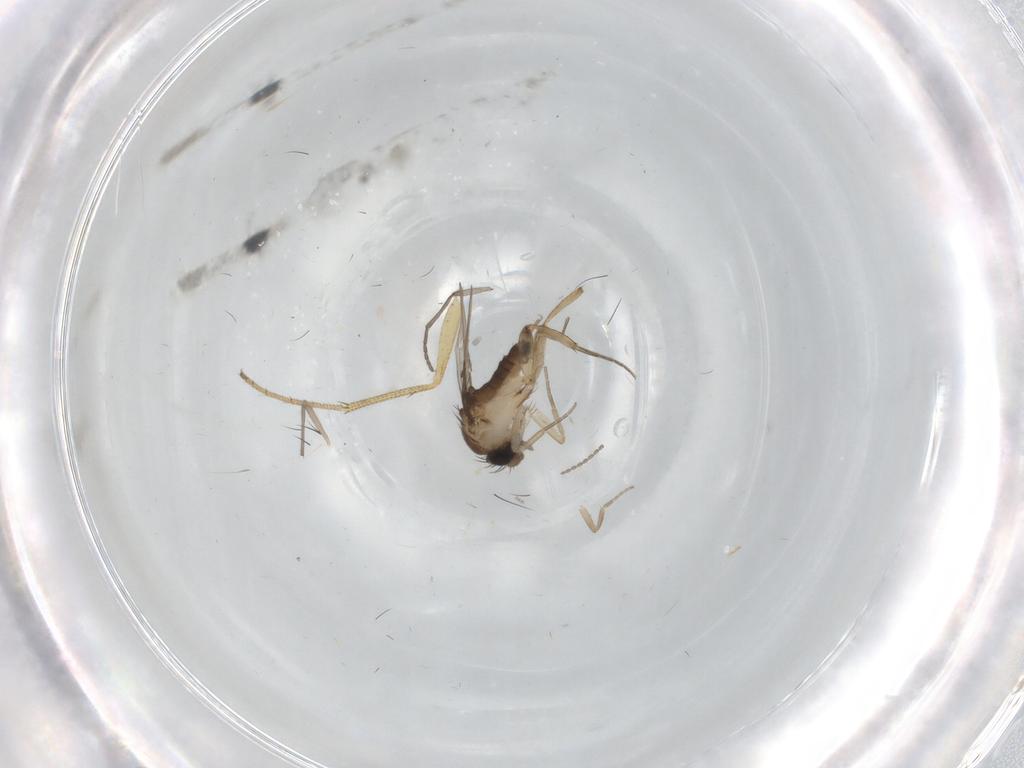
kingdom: Animalia
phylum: Arthropoda
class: Insecta
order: Diptera
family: Phoridae
